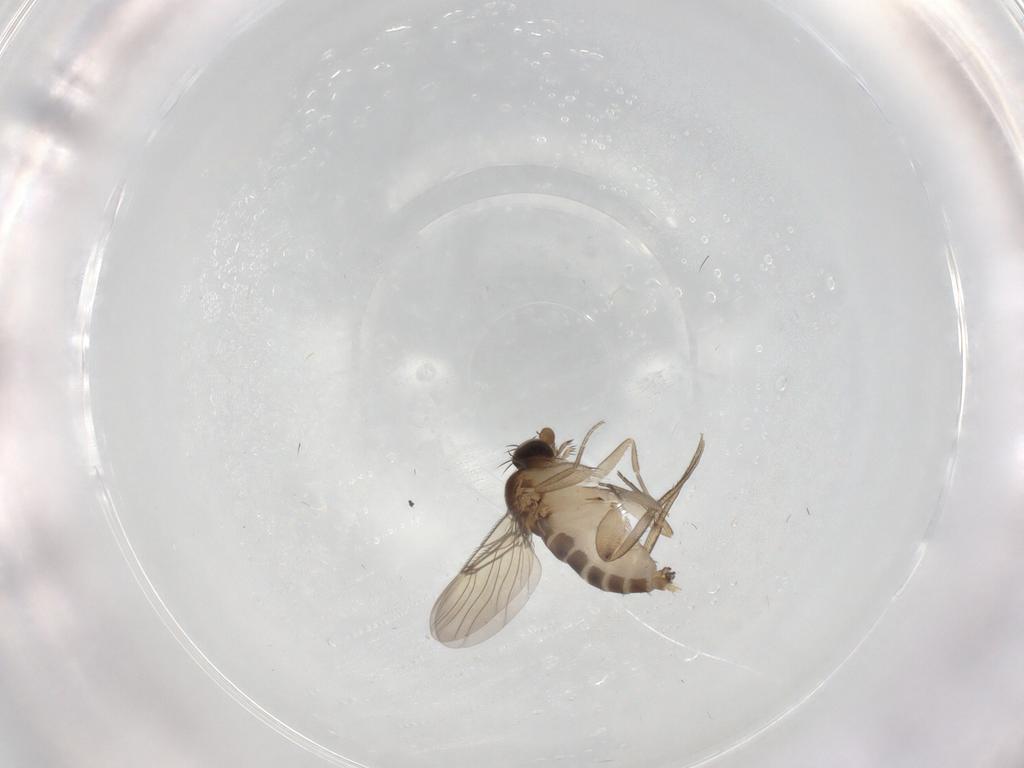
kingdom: Animalia
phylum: Arthropoda
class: Insecta
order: Diptera
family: Phoridae
